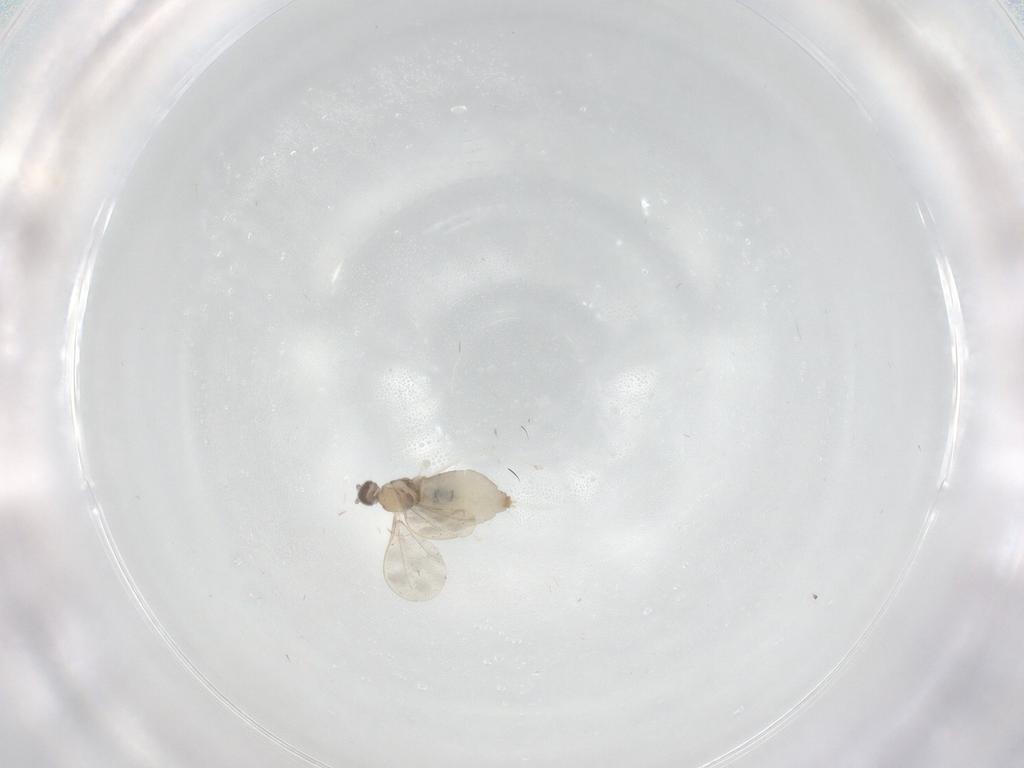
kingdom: Animalia
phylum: Arthropoda
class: Insecta
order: Diptera
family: Cecidomyiidae
